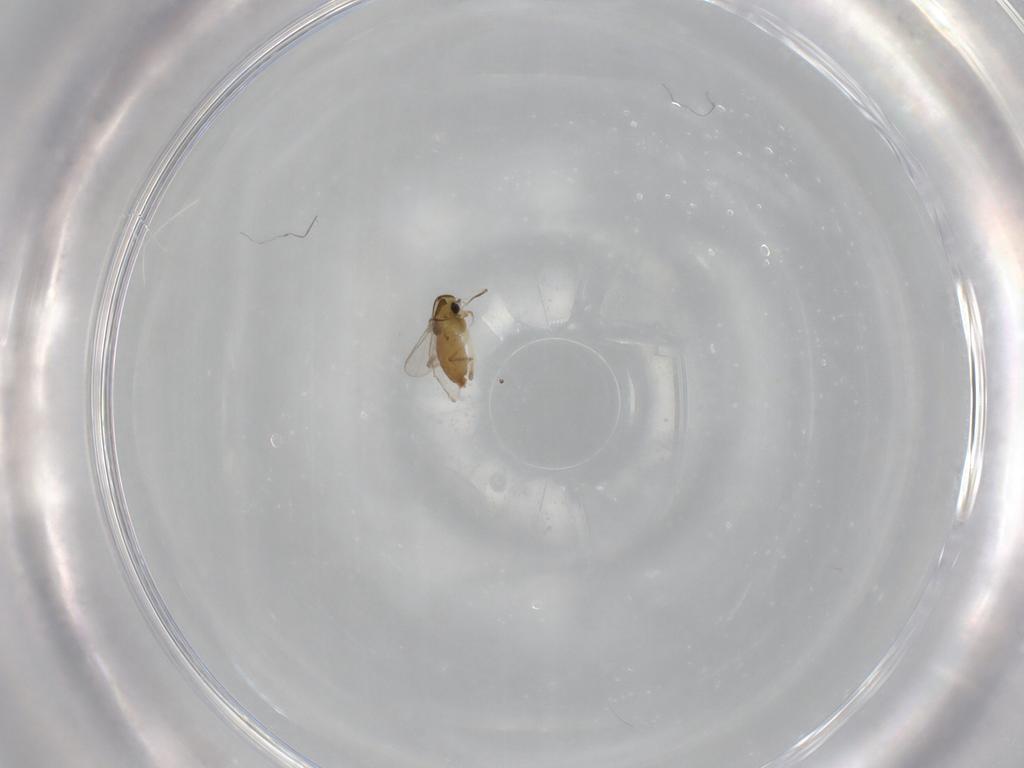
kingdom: Animalia
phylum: Arthropoda
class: Insecta
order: Diptera
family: Chironomidae
